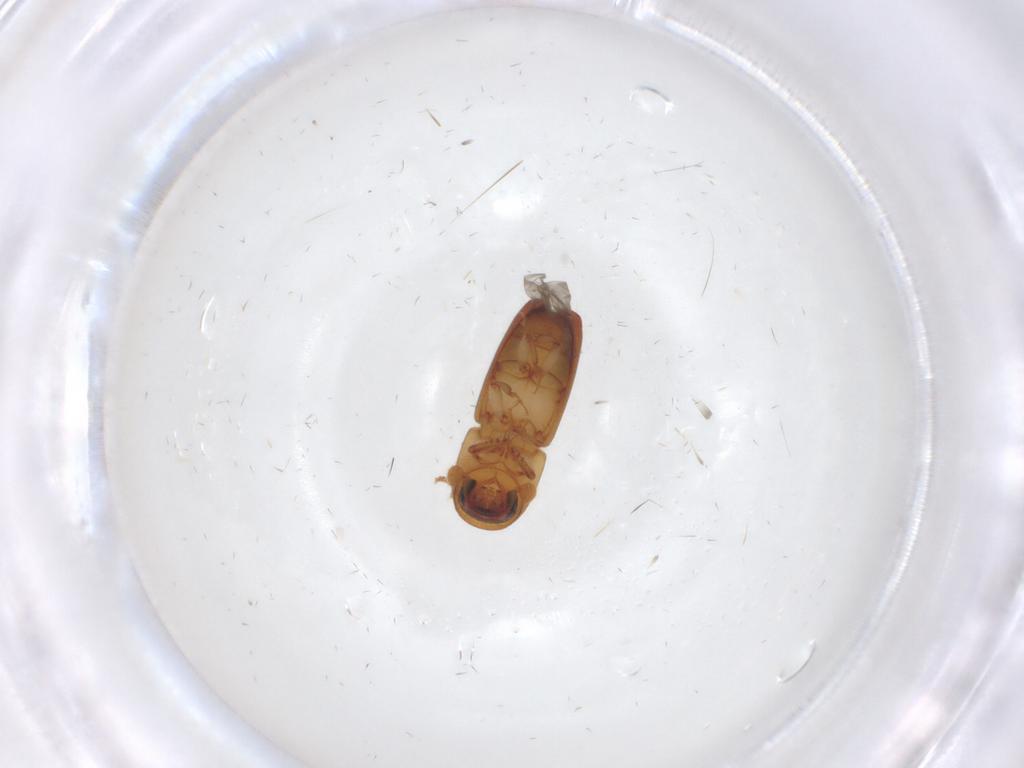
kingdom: Animalia
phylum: Arthropoda
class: Insecta
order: Coleoptera
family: Curculionidae
